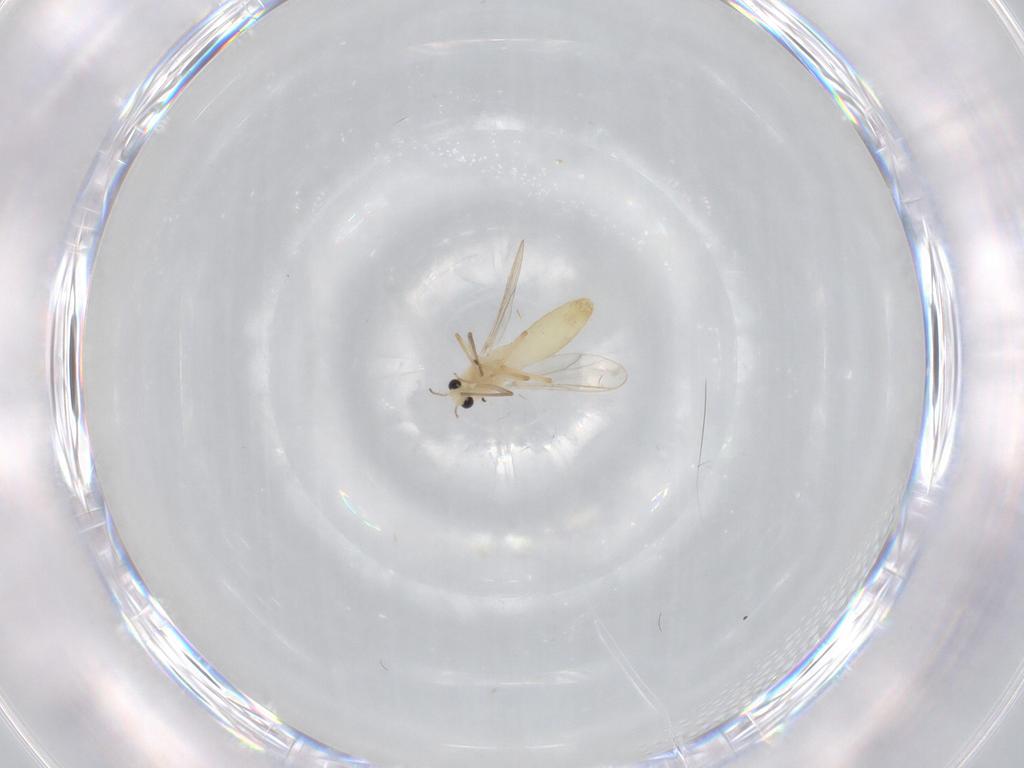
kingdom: Animalia
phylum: Arthropoda
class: Insecta
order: Diptera
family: Chironomidae
